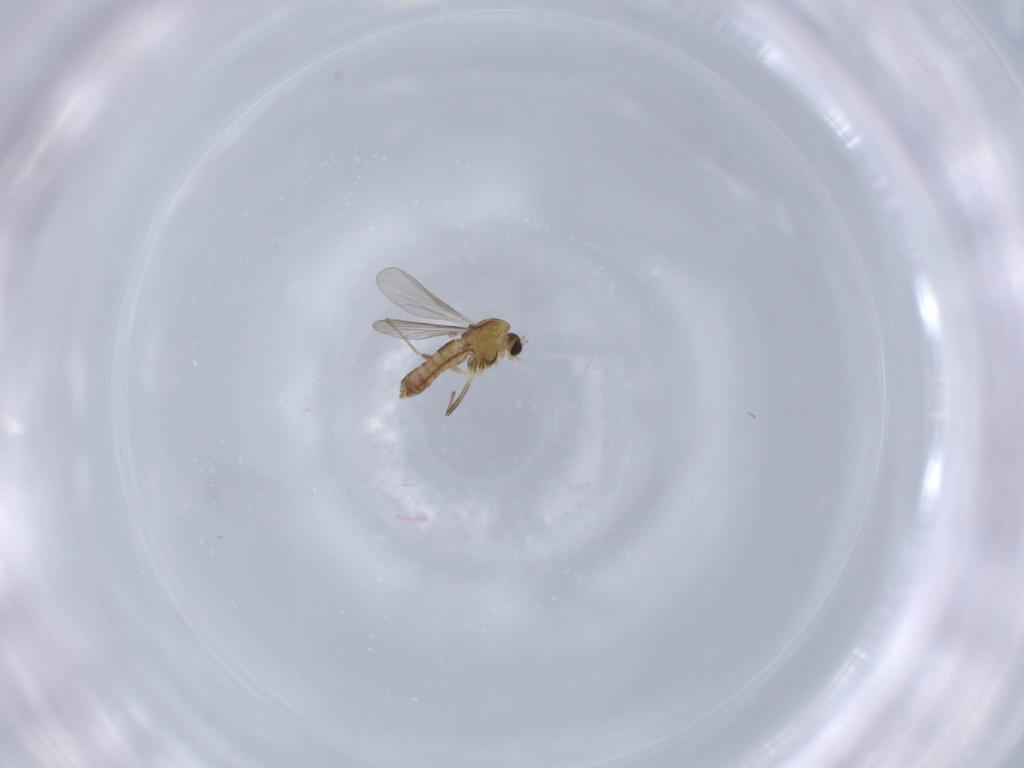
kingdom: Animalia
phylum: Arthropoda
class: Insecta
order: Diptera
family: Chironomidae
